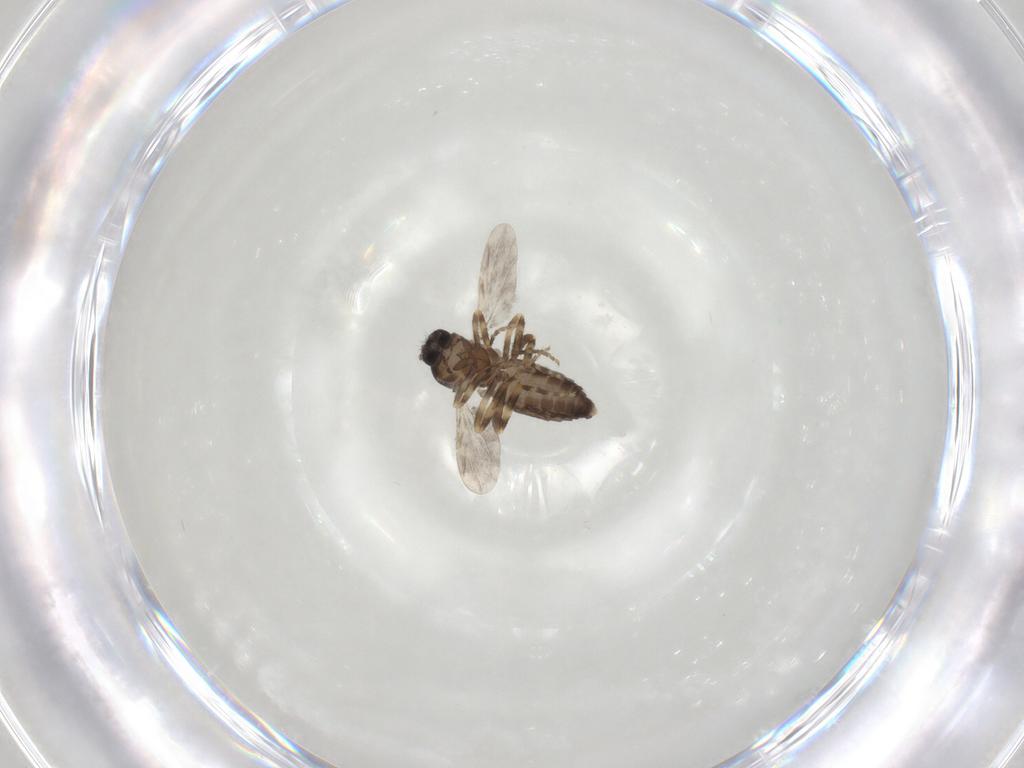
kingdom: Animalia
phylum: Arthropoda
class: Insecta
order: Diptera
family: Ceratopogonidae
